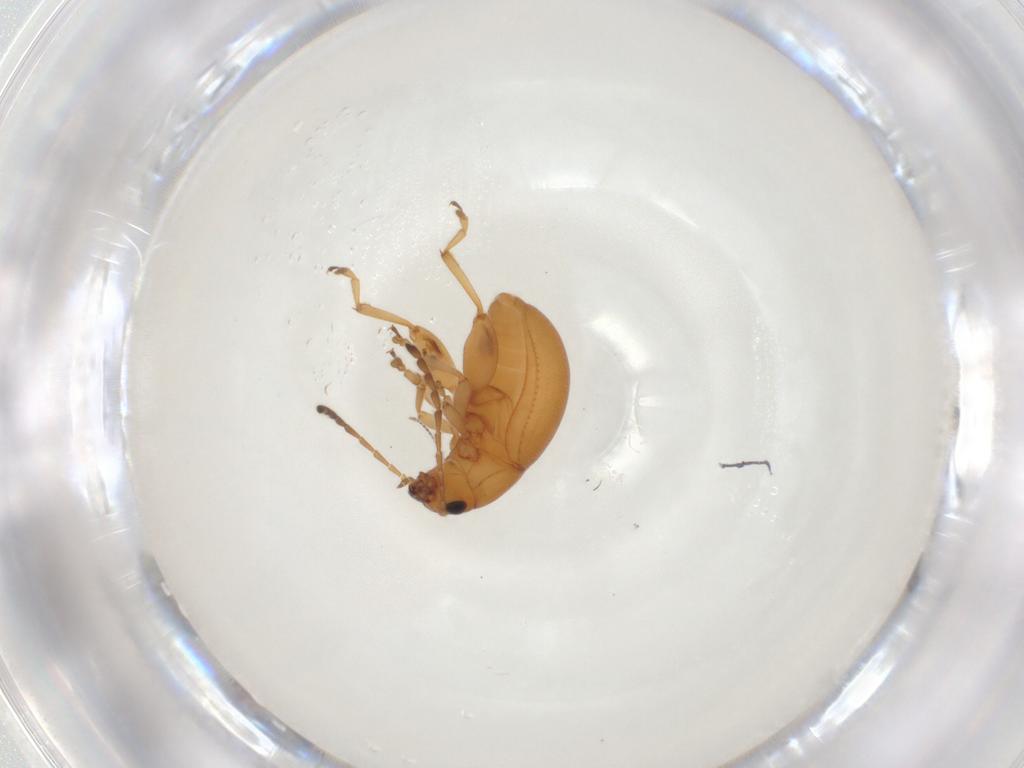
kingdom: Animalia
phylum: Arthropoda
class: Insecta
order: Coleoptera
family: Chrysomelidae
